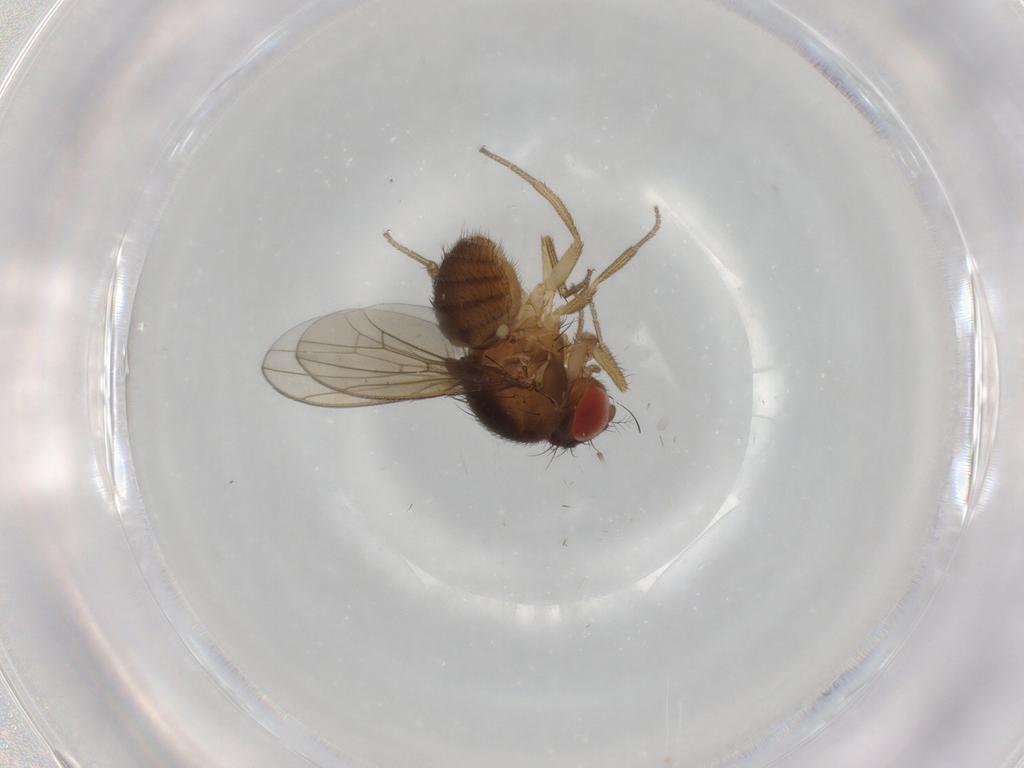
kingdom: Animalia
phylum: Arthropoda
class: Insecta
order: Diptera
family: Drosophilidae
